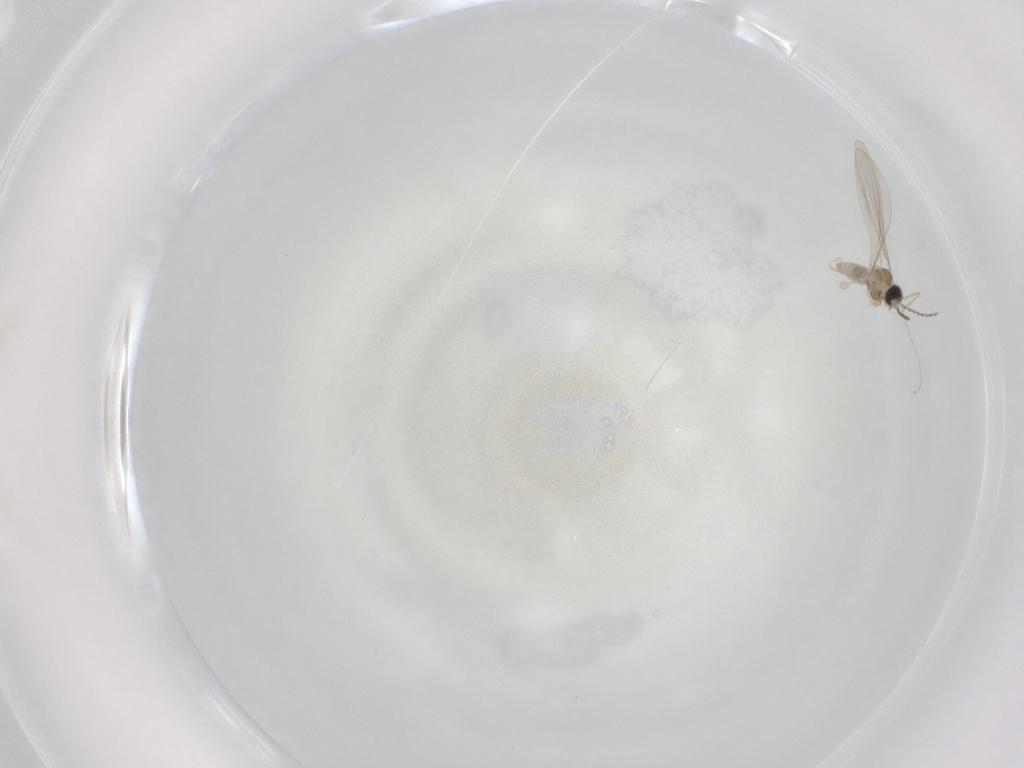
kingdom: Animalia
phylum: Arthropoda
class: Insecta
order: Diptera
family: Cecidomyiidae
